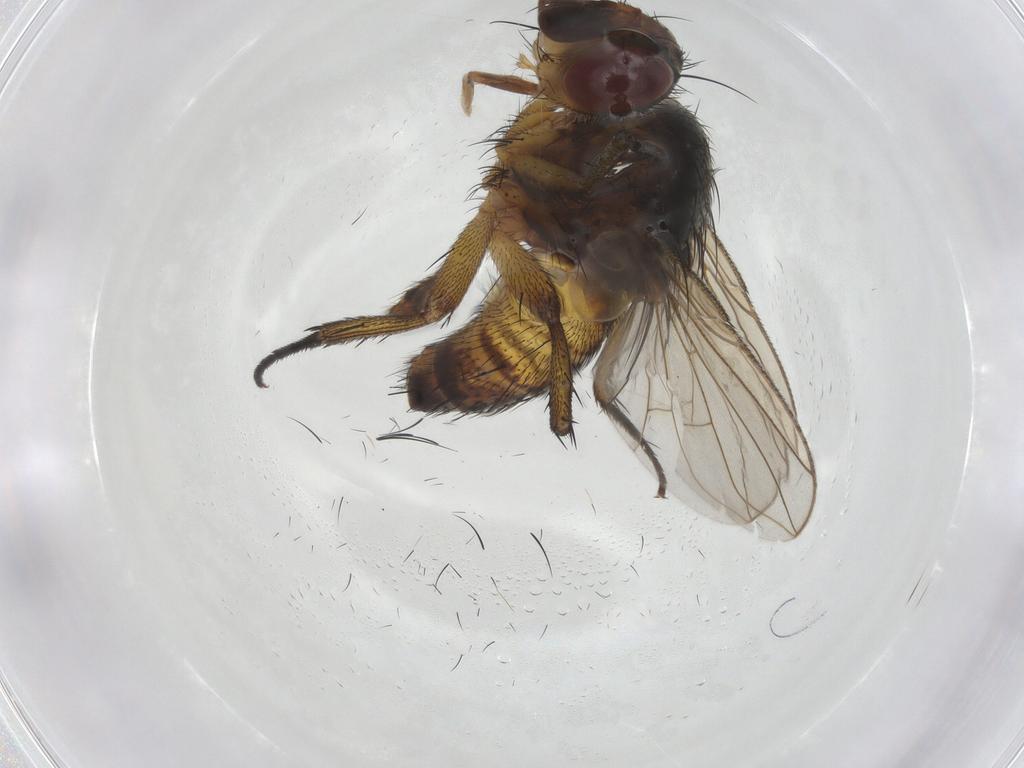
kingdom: Animalia
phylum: Arthropoda
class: Insecta
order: Diptera
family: Tachinidae
